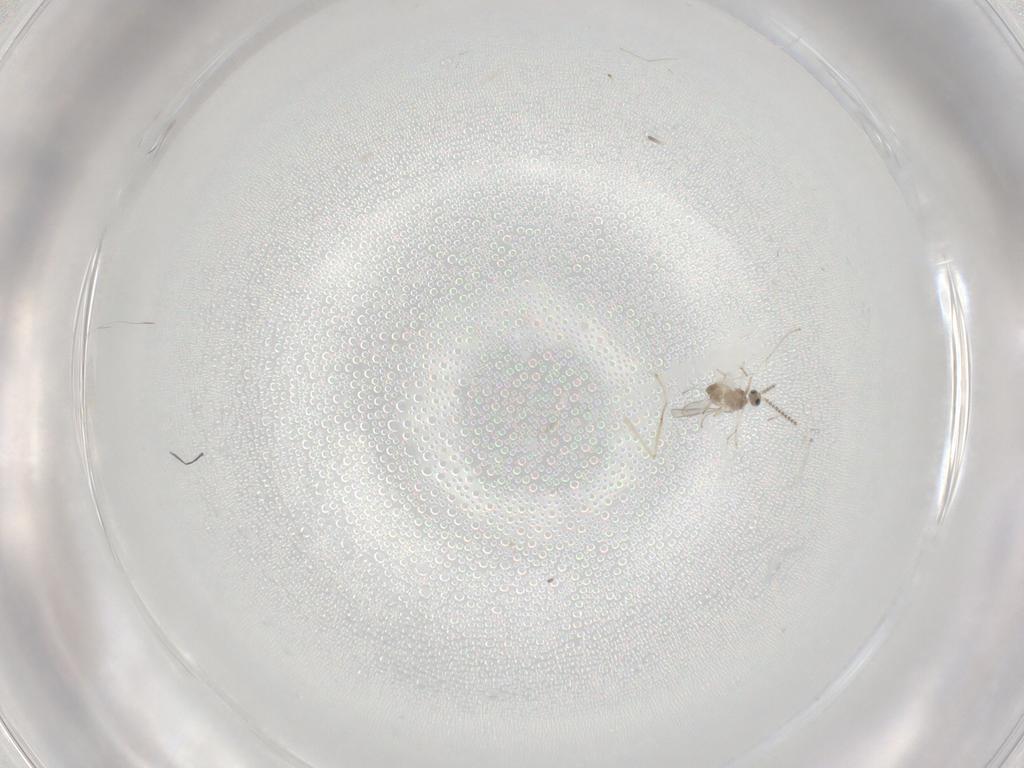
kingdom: Animalia
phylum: Arthropoda
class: Insecta
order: Diptera
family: Cecidomyiidae
